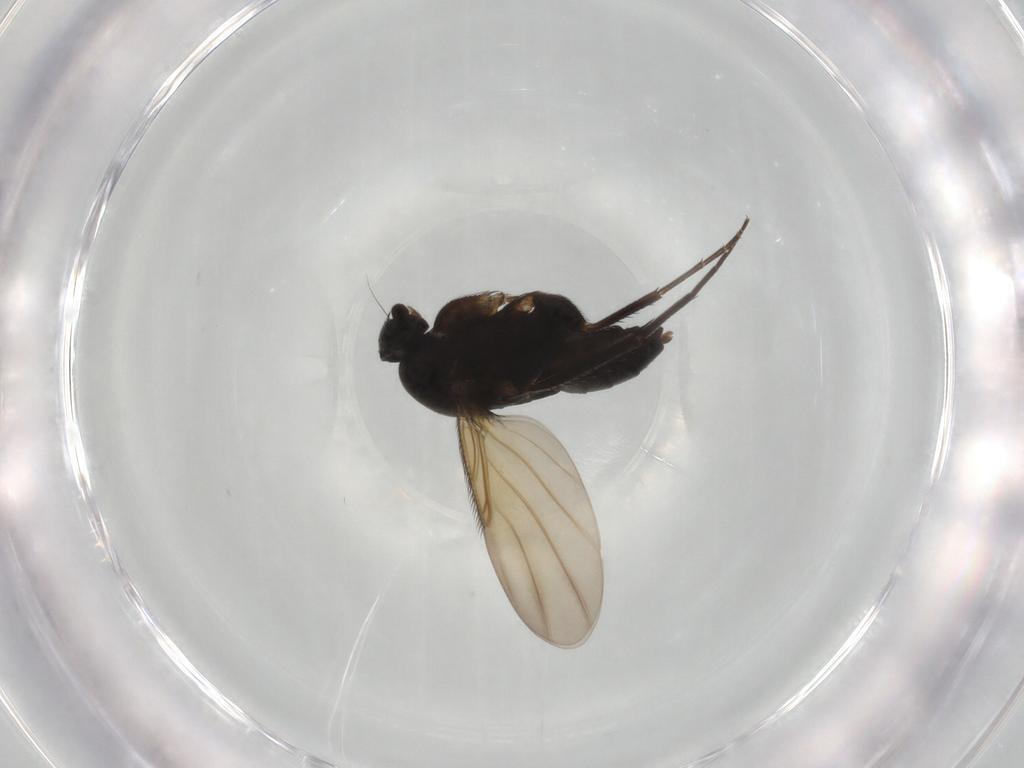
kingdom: Animalia
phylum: Arthropoda
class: Insecta
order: Diptera
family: Phoridae
